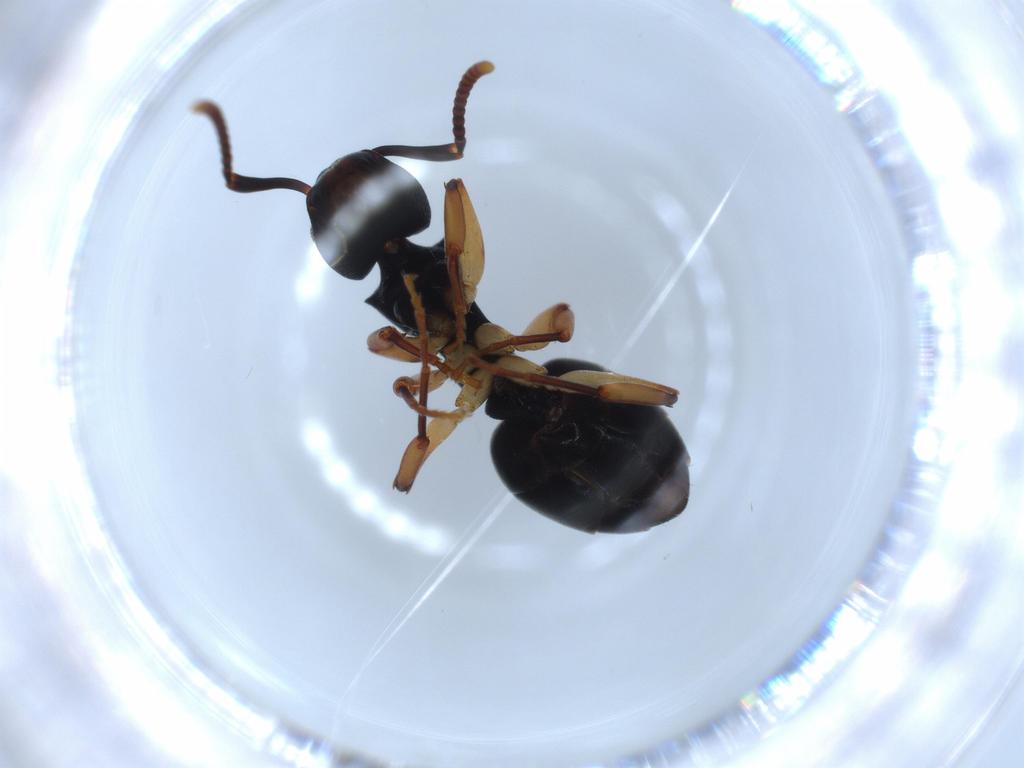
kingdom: Animalia
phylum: Arthropoda
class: Insecta
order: Hymenoptera
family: Formicidae
